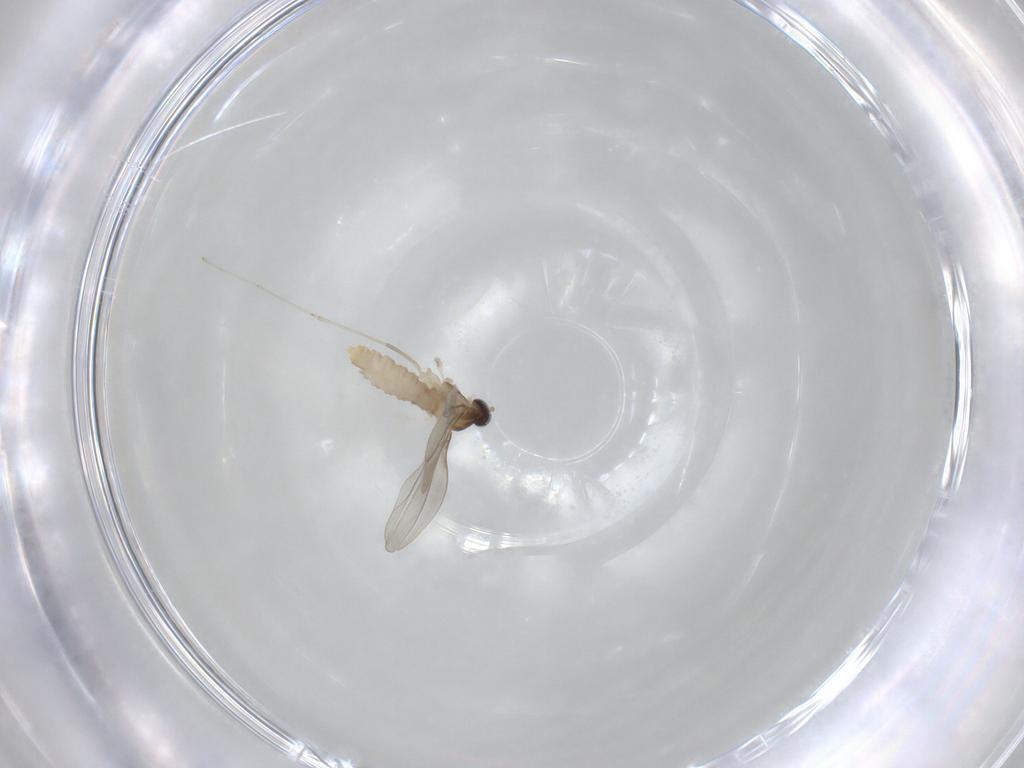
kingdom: Animalia
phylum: Arthropoda
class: Insecta
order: Diptera
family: Cecidomyiidae
